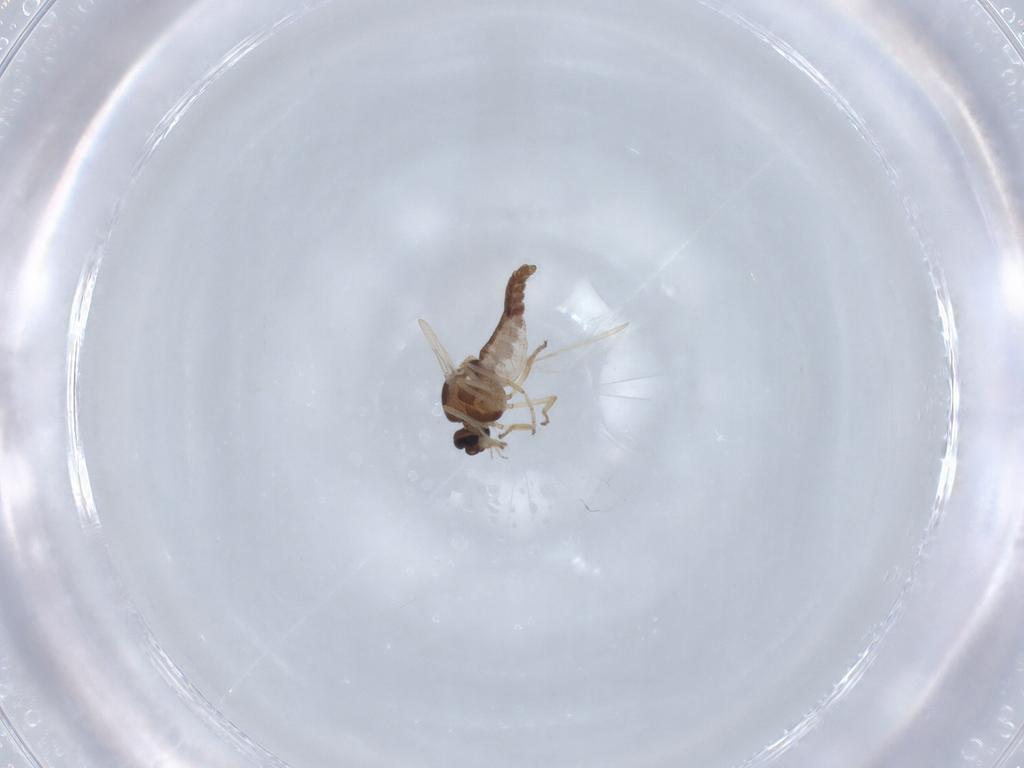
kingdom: Animalia
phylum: Arthropoda
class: Insecta
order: Diptera
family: Ceratopogonidae
